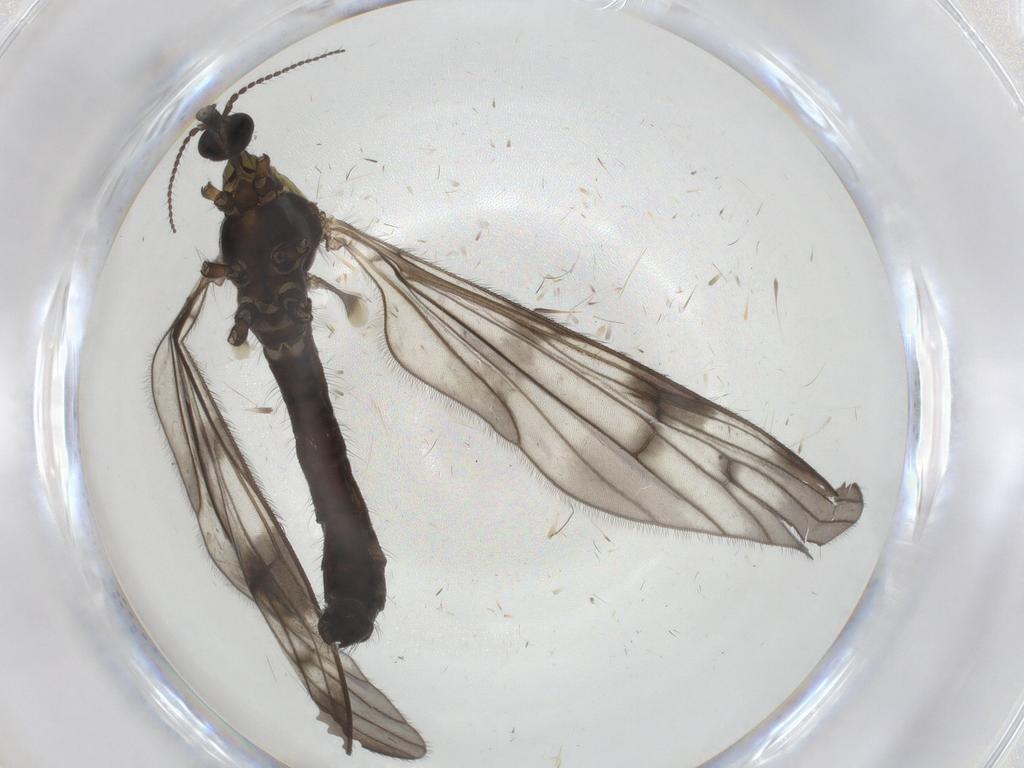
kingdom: Animalia
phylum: Arthropoda
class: Insecta
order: Diptera
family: Limoniidae
